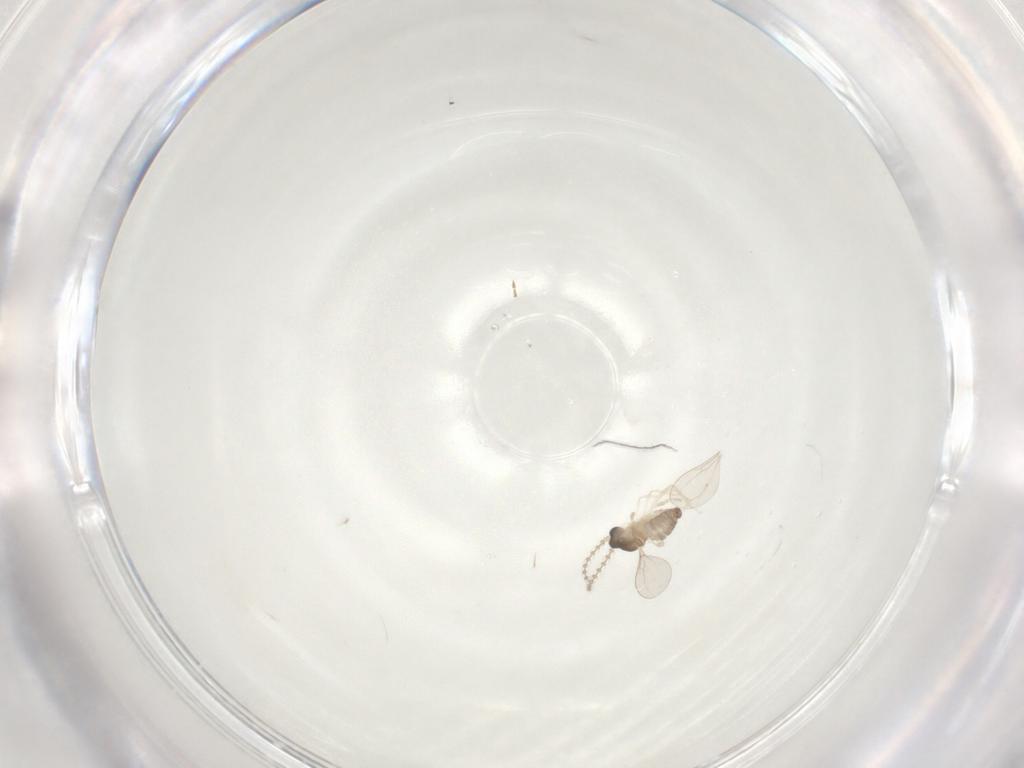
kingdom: Animalia
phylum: Arthropoda
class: Insecta
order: Diptera
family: Cecidomyiidae
